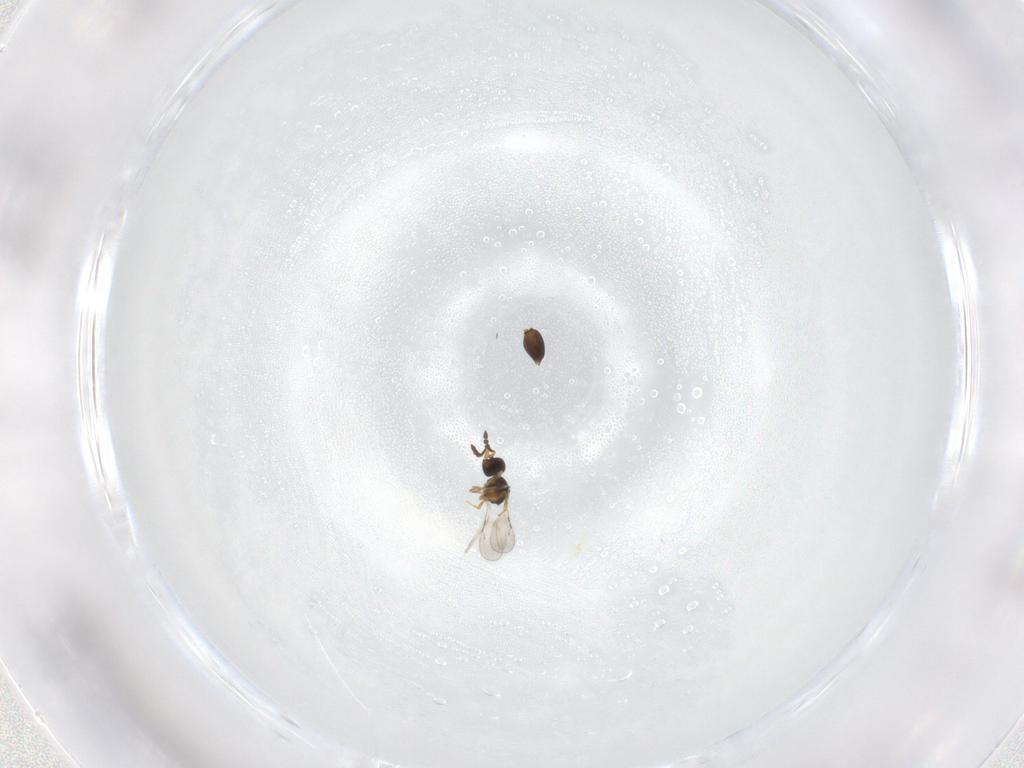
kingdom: Animalia
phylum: Arthropoda
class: Insecta
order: Hymenoptera
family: Ceraphronidae
